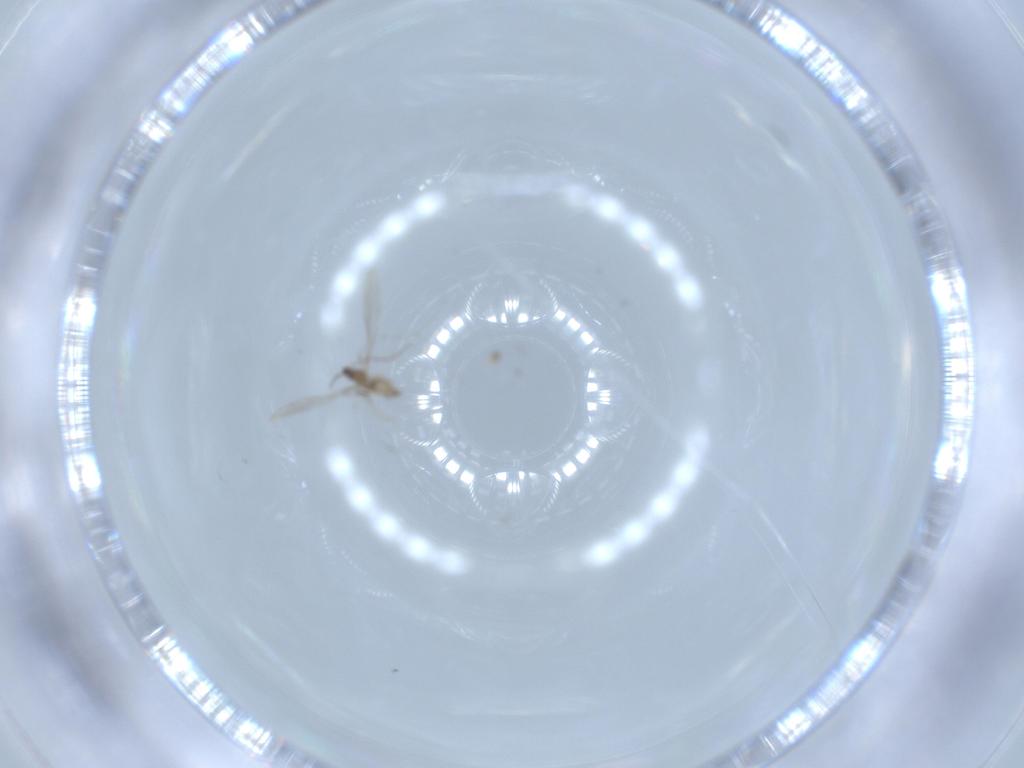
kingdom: Animalia
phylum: Arthropoda
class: Insecta
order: Diptera
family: Cecidomyiidae
